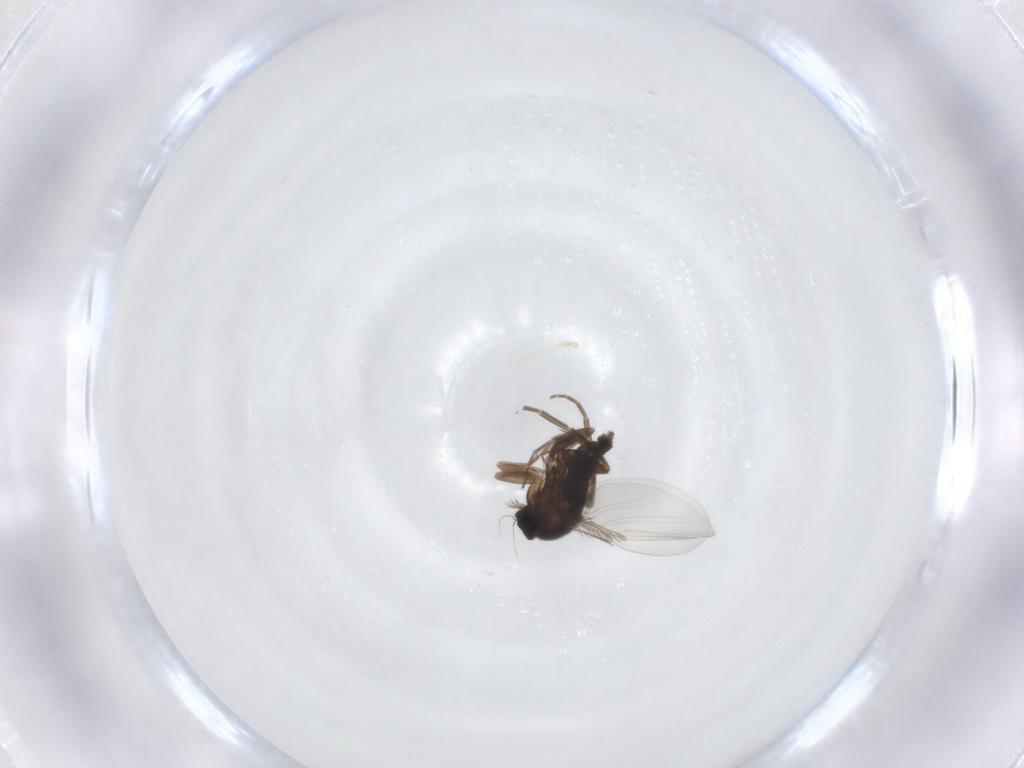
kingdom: Animalia
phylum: Arthropoda
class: Insecta
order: Diptera
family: Phoridae
